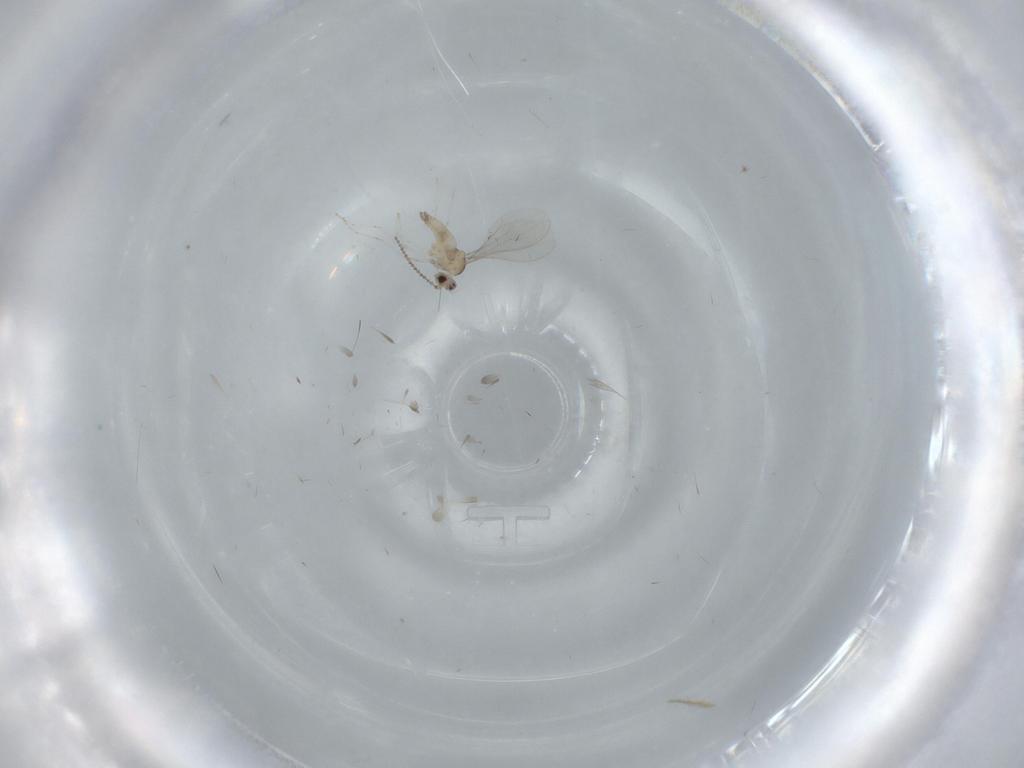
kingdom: Animalia
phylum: Arthropoda
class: Insecta
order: Diptera
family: Cecidomyiidae
